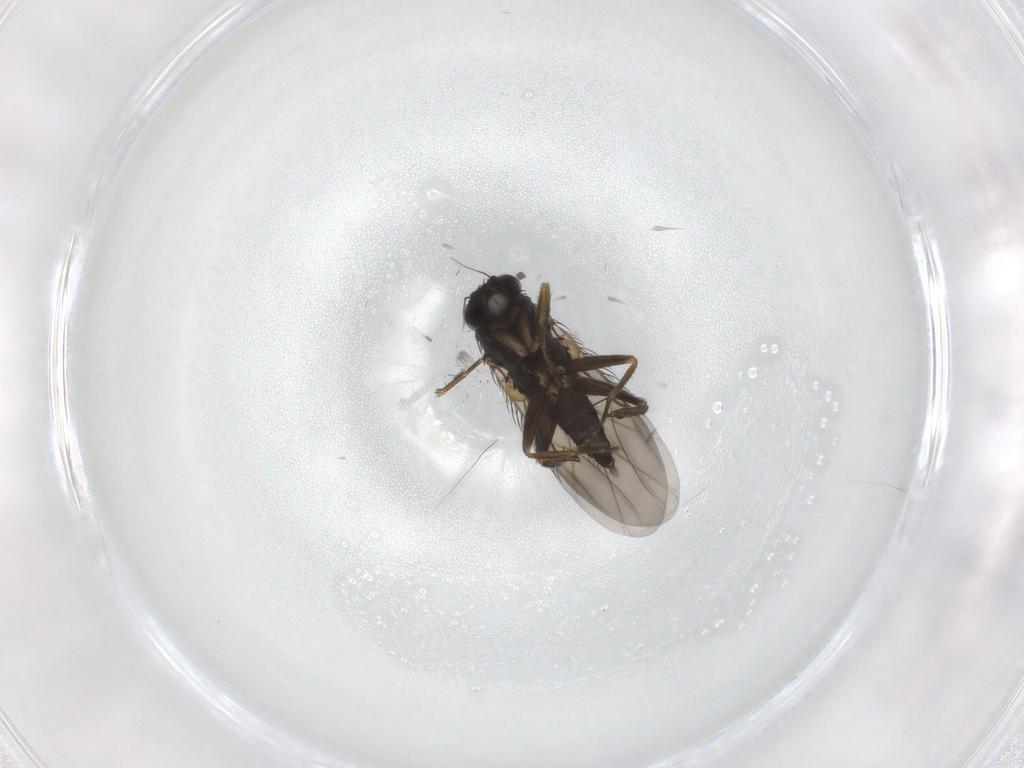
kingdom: Animalia
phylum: Arthropoda
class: Insecta
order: Diptera
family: Phoridae
